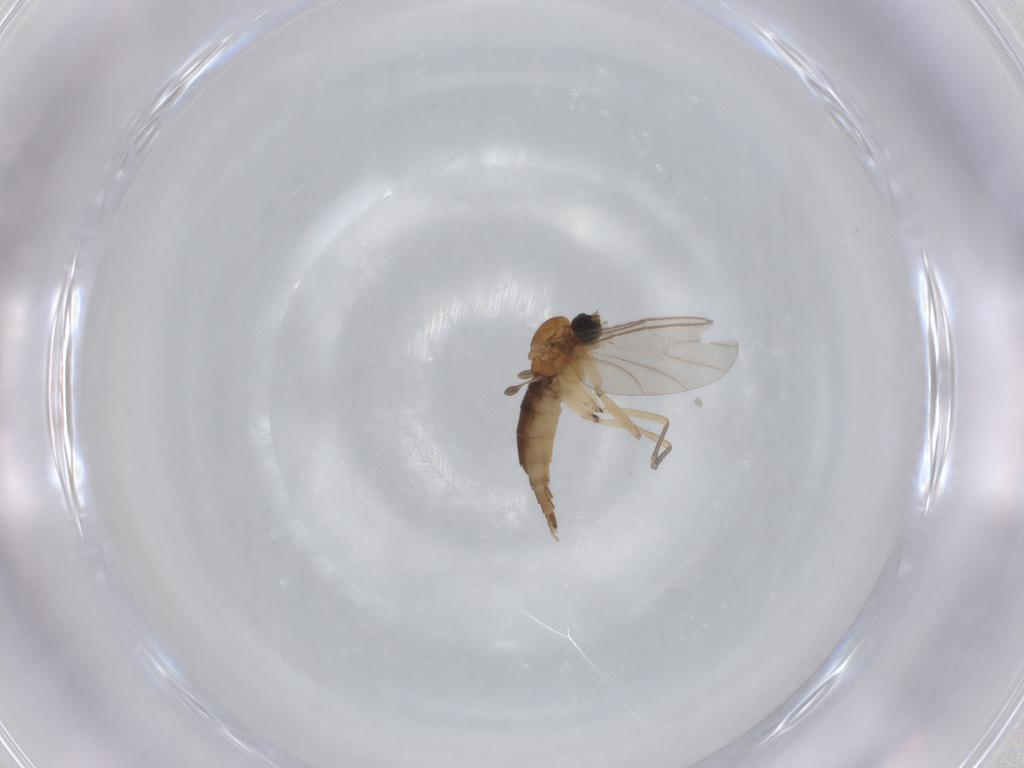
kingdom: Animalia
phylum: Arthropoda
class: Insecta
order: Diptera
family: Sciaridae
